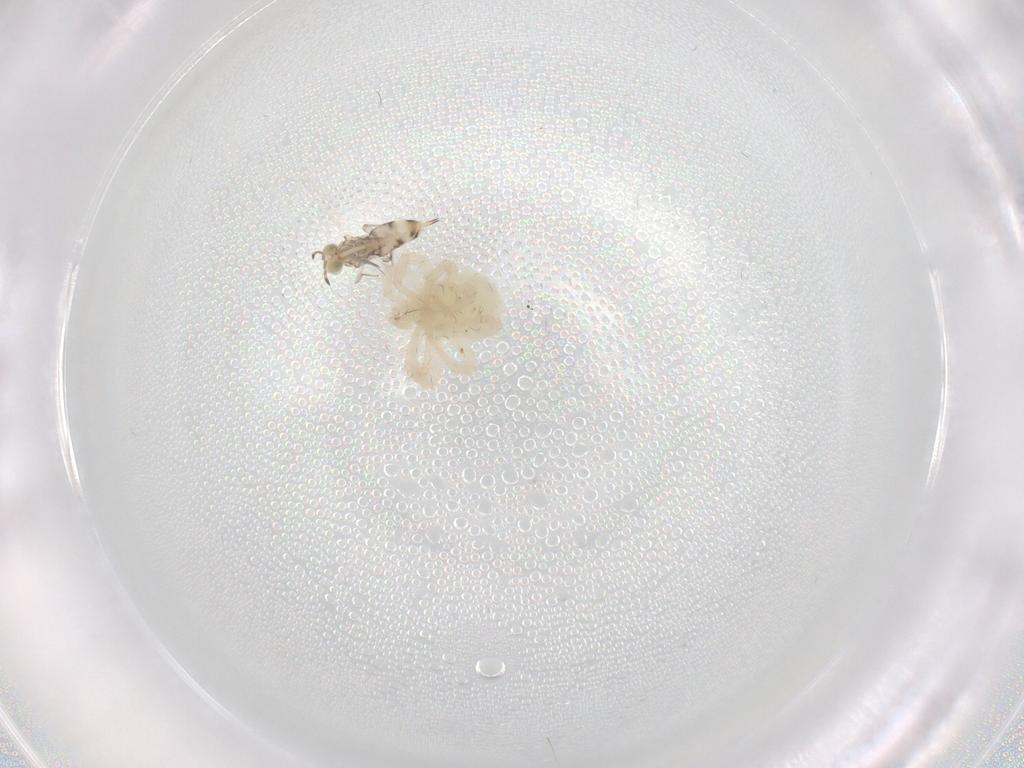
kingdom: Animalia
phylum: Arthropoda
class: Arachnida
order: Trombidiformes
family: Anystidae
